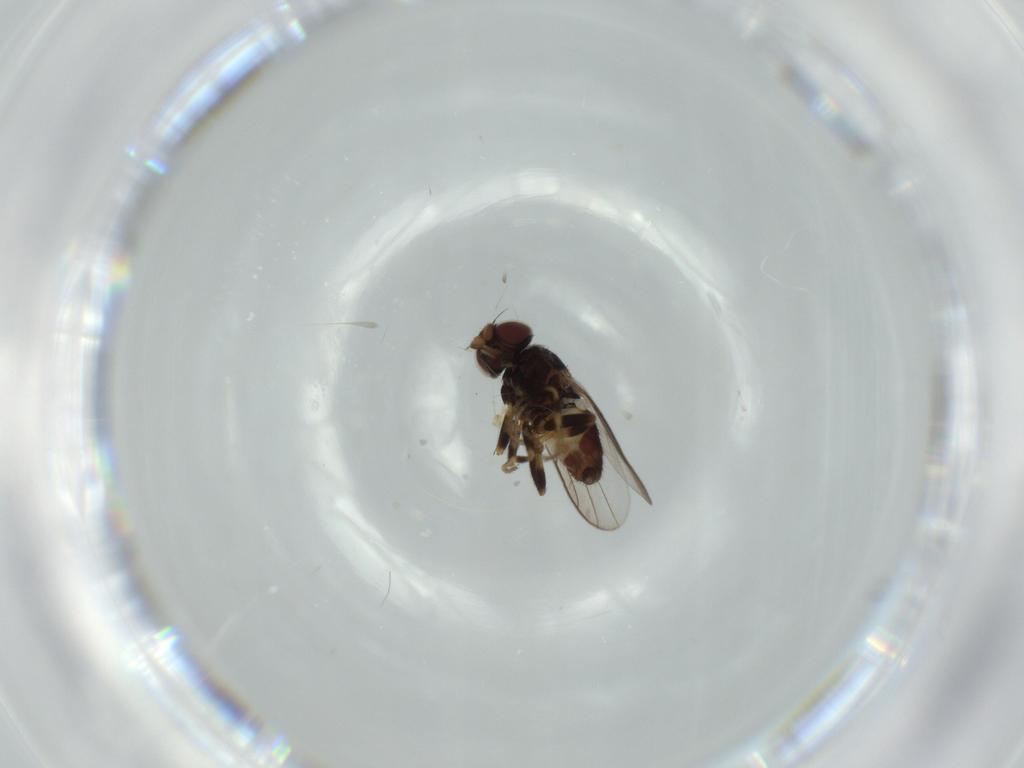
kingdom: Animalia
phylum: Arthropoda
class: Insecta
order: Diptera
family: Chloropidae
